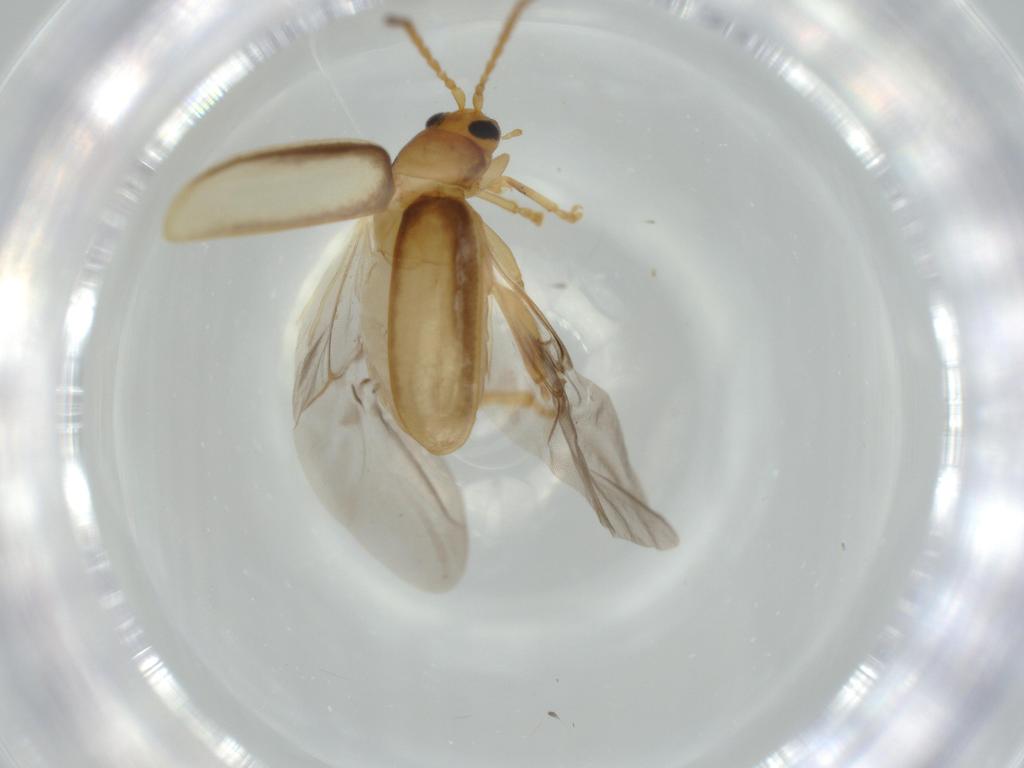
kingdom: Animalia
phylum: Arthropoda
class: Insecta
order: Coleoptera
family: Chrysomelidae
